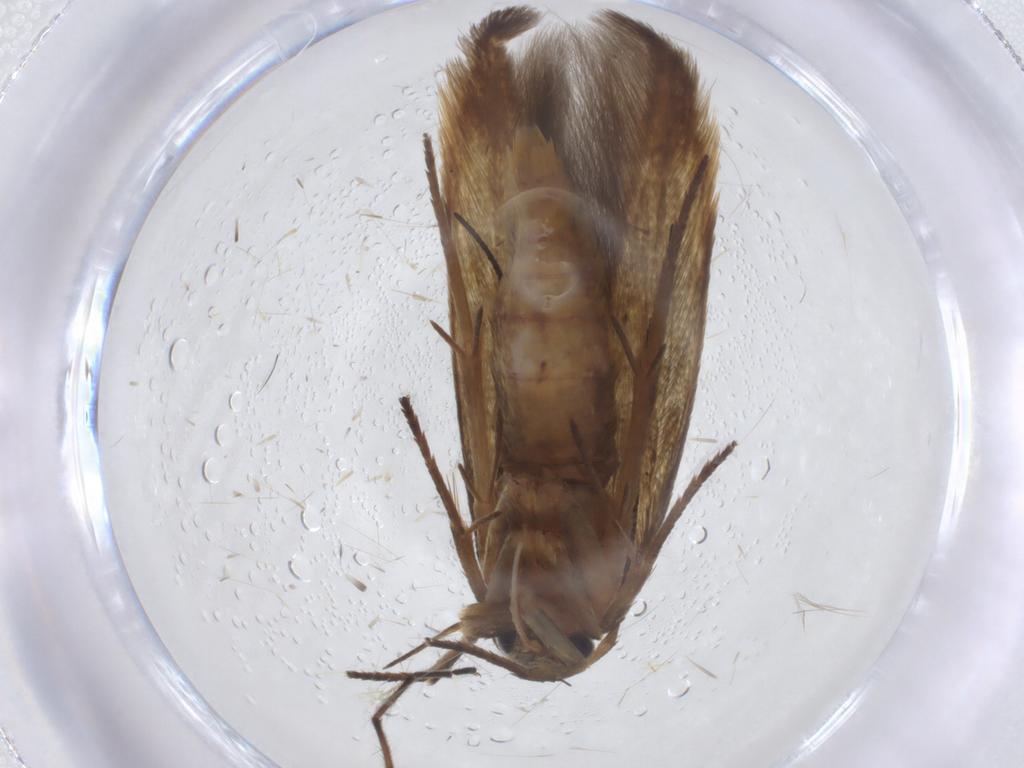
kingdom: Animalia
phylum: Arthropoda
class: Insecta
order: Lepidoptera
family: Stathmopodidae
